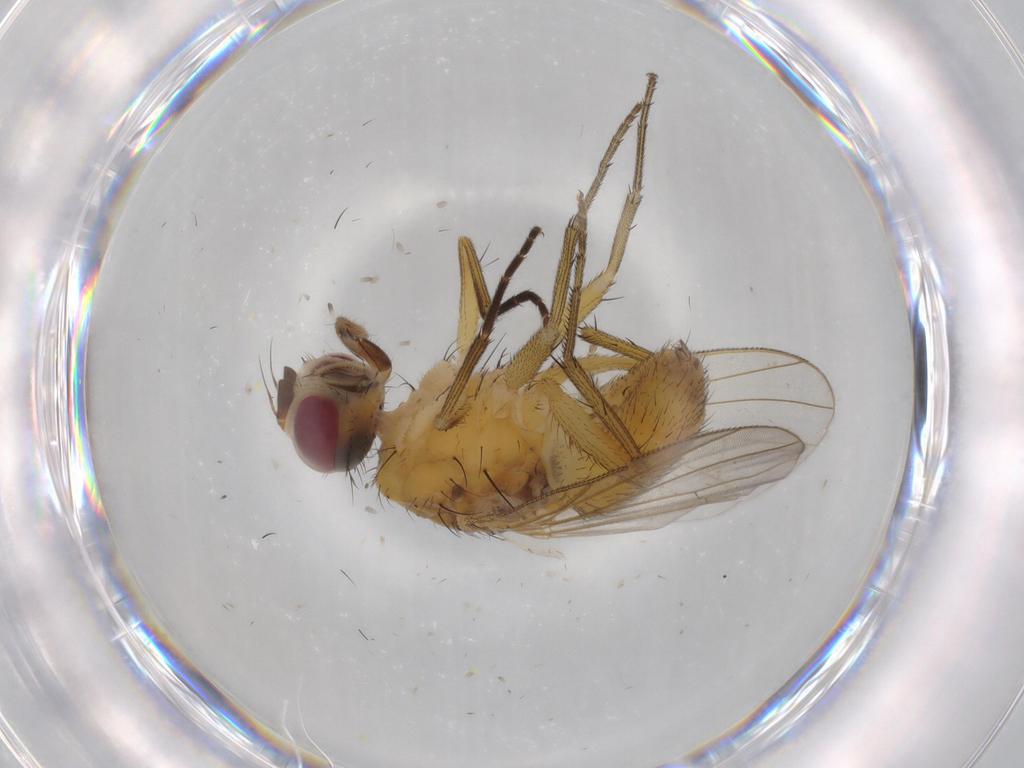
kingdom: Animalia
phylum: Arthropoda
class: Insecta
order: Diptera
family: Muscidae
